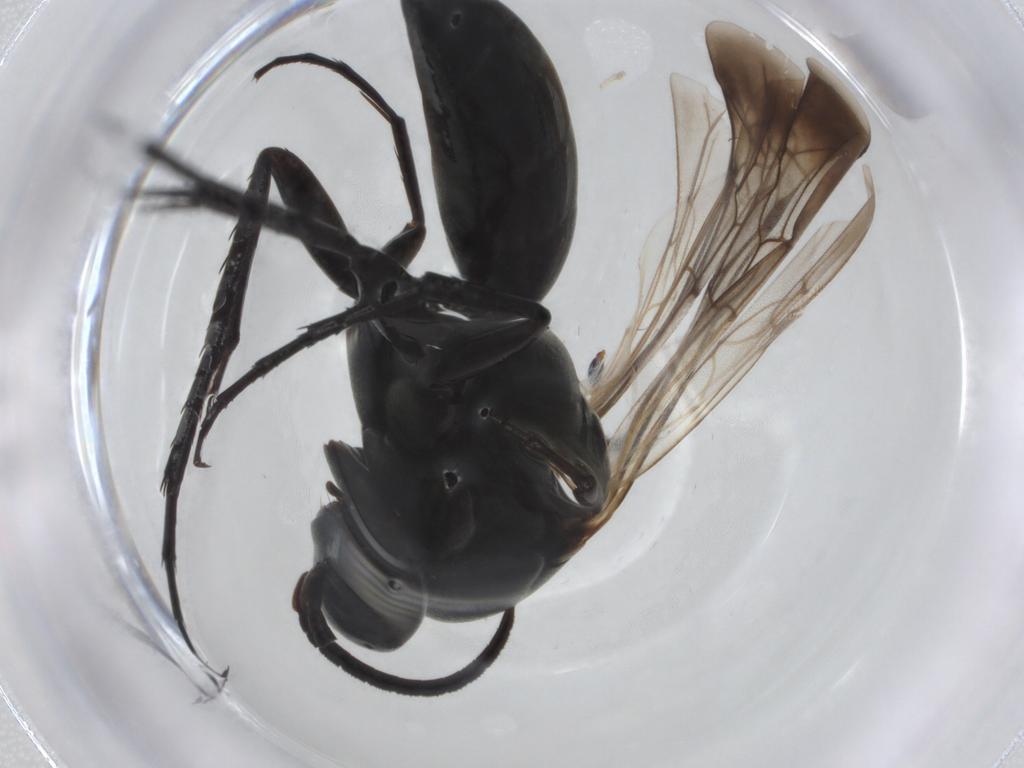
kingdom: Animalia
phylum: Arthropoda
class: Insecta
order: Hymenoptera
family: Pompilidae
